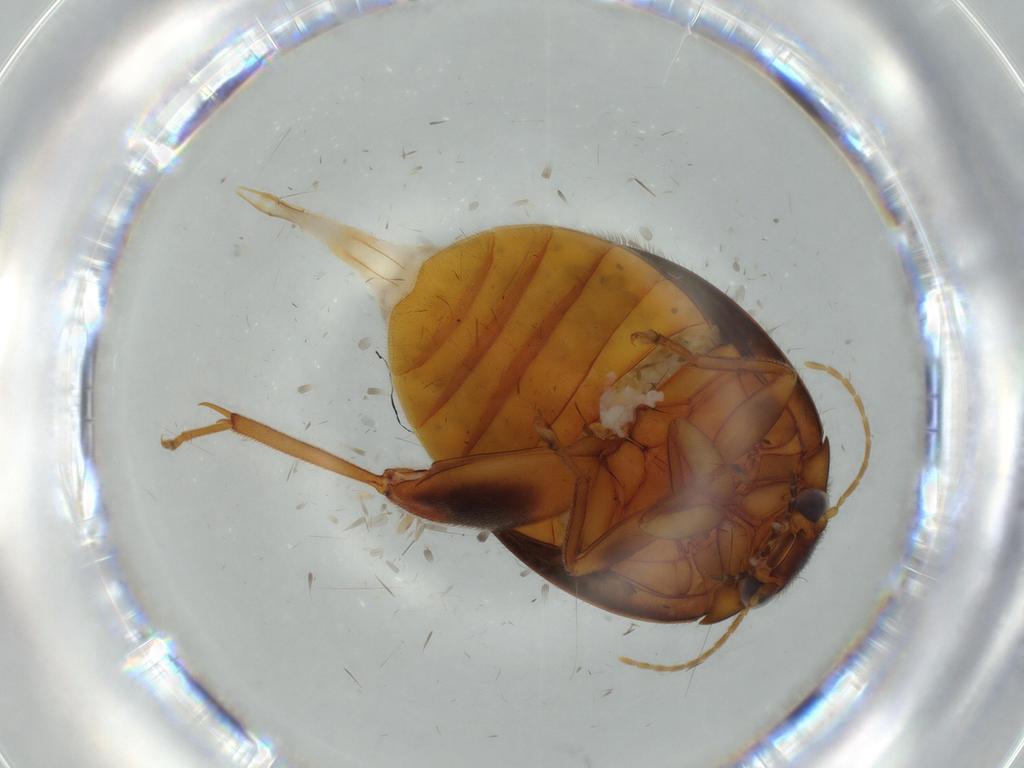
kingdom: Animalia
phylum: Arthropoda
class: Insecta
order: Coleoptera
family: Scirtidae
